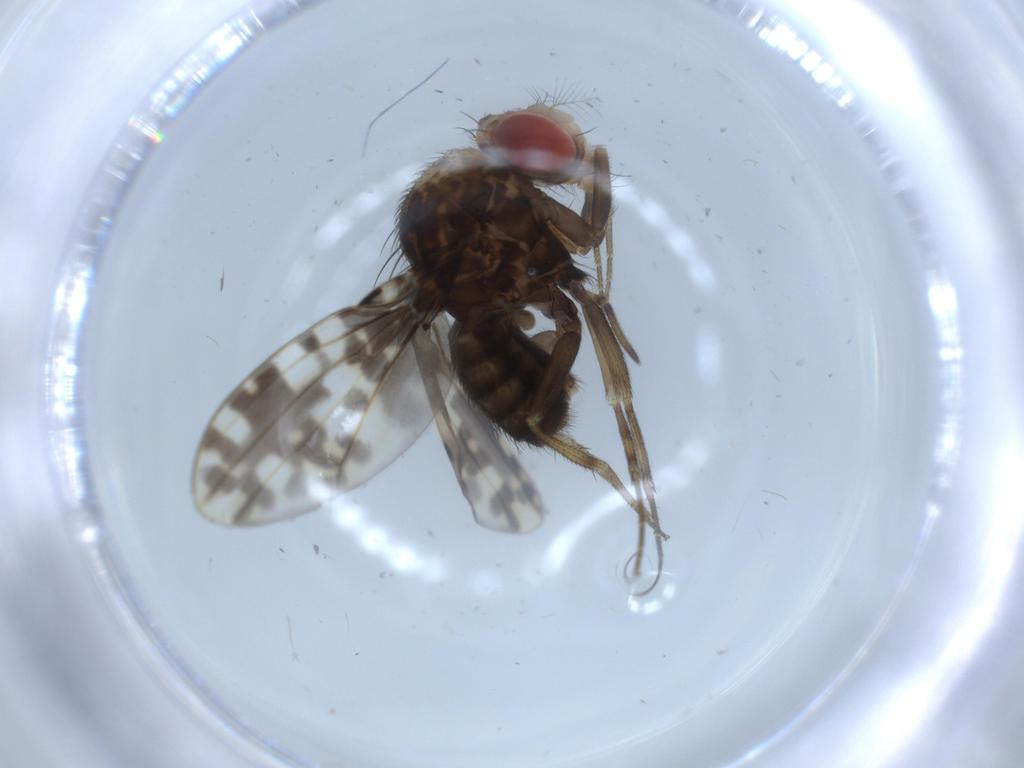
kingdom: Animalia
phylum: Arthropoda
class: Insecta
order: Diptera
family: Drosophilidae
